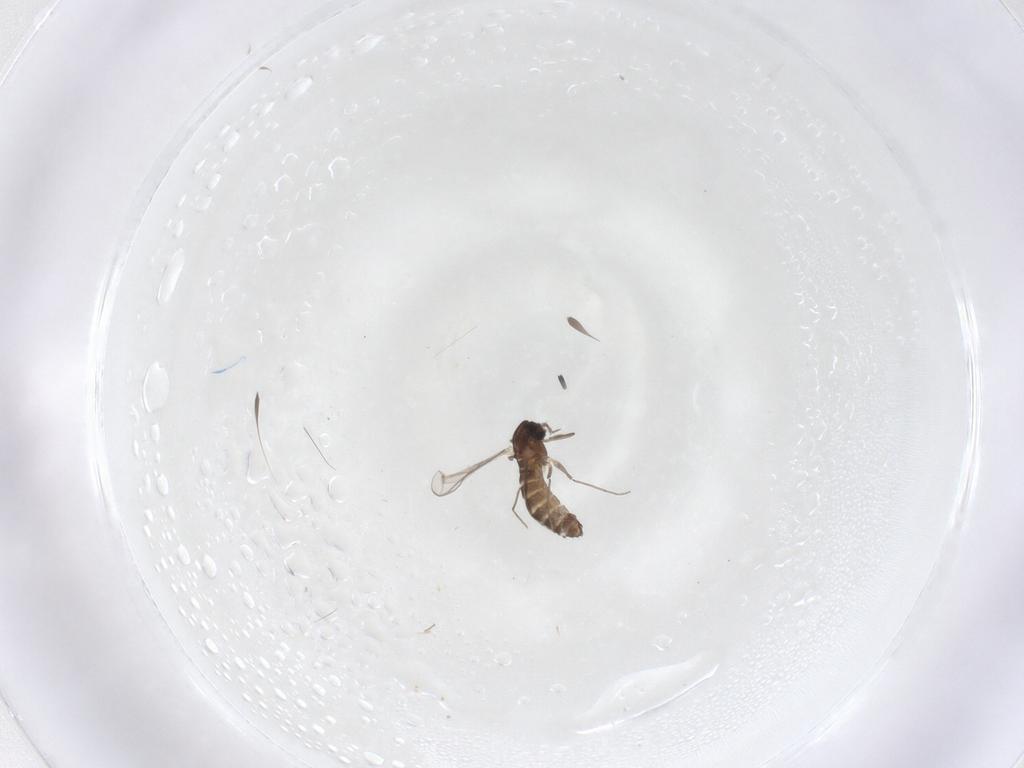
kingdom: Animalia
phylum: Arthropoda
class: Insecta
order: Diptera
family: Chironomidae
